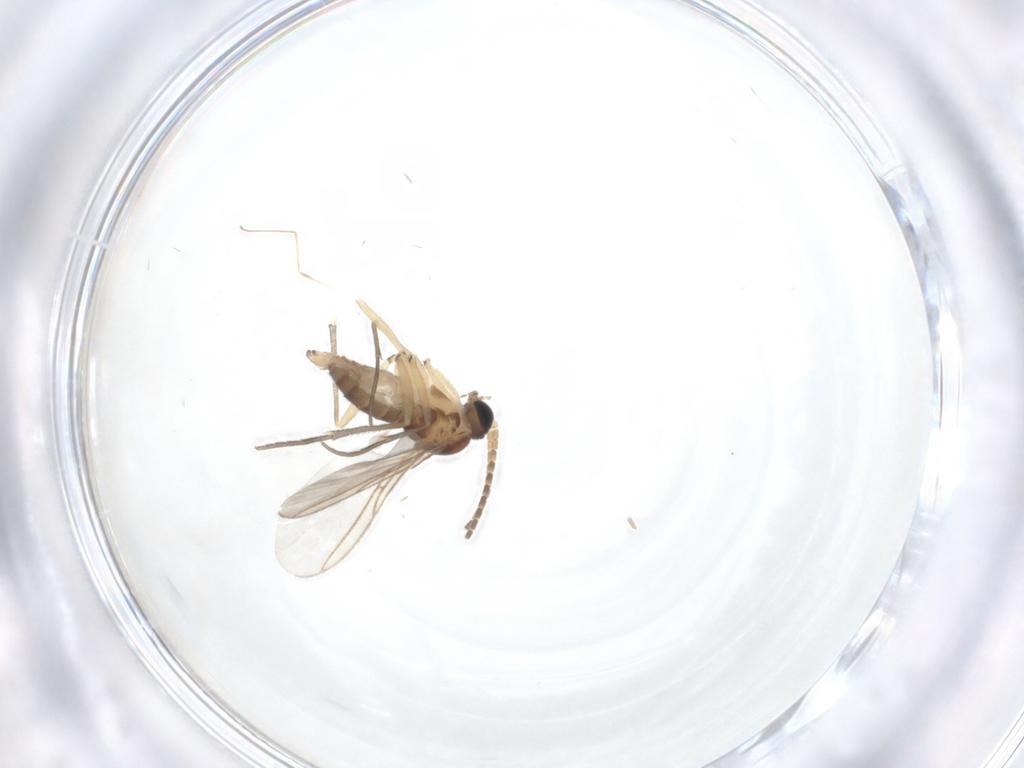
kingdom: Animalia
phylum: Arthropoda
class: Insecta
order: Diptera
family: Sciaridae
